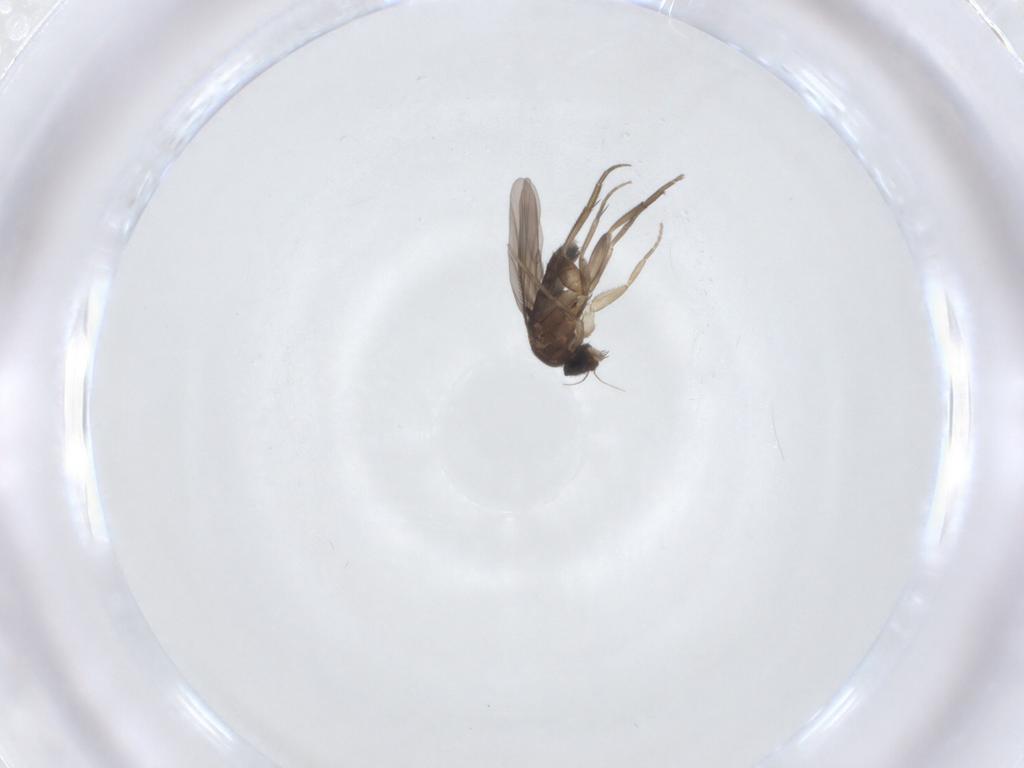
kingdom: Animalia
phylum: Arthropoda
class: Insecta
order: Diptera
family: Phoridae
